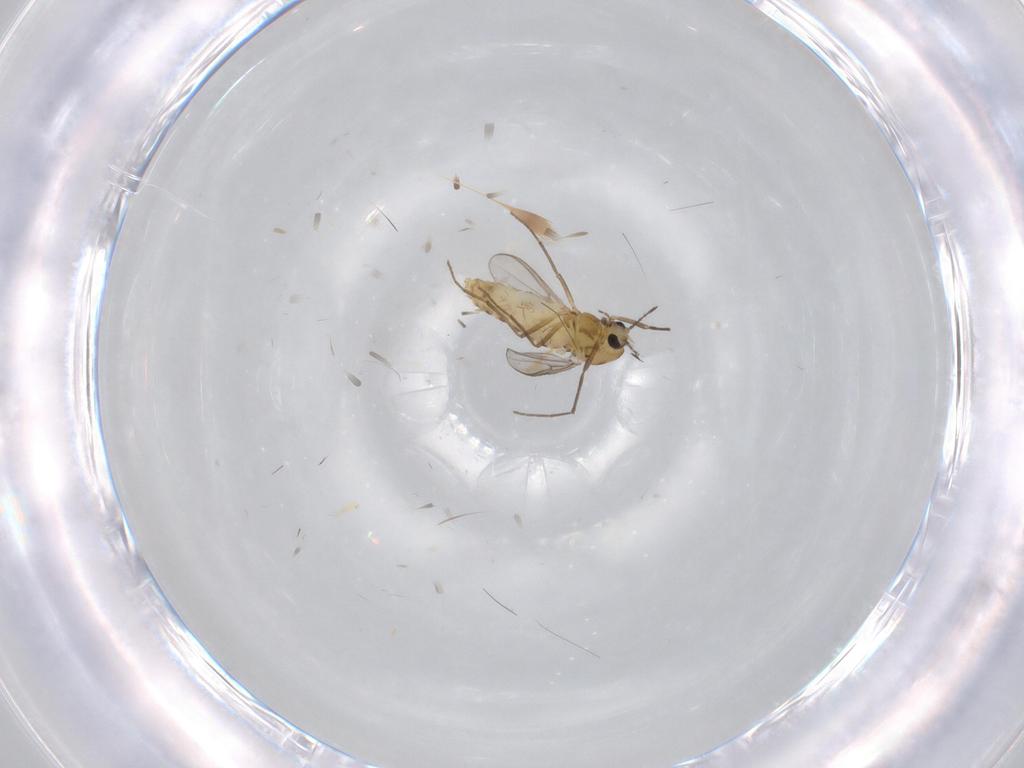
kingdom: Animalia
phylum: Arthropoda
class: Insecta
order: Diptera
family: Chironomidae
